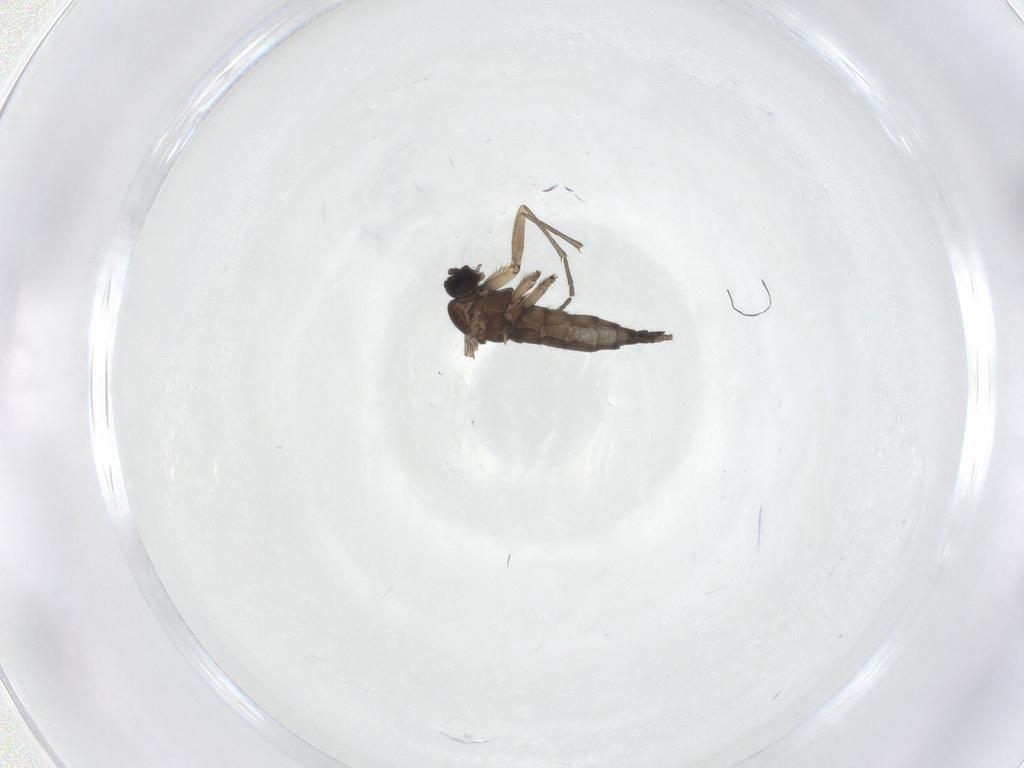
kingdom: Animalia
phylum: Arthropoda
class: Insecta
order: Diptera
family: Sciaridae
